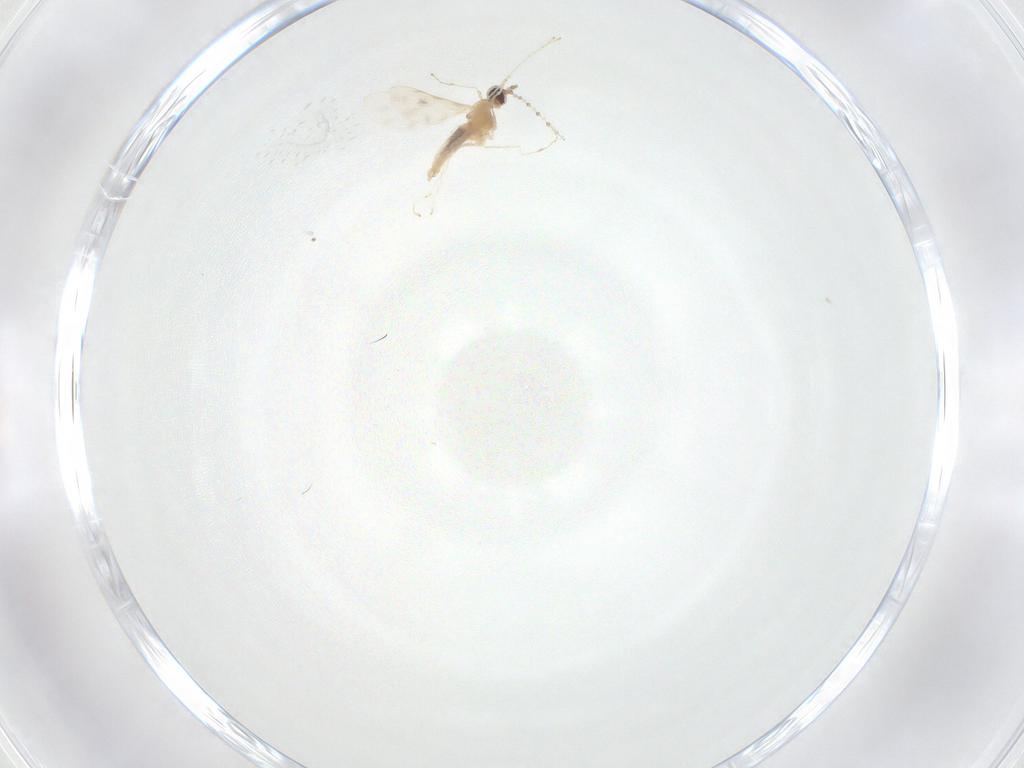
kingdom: Animalia
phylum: Arthropoda
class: Insecta
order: Diptera
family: Cecidomyiidae
